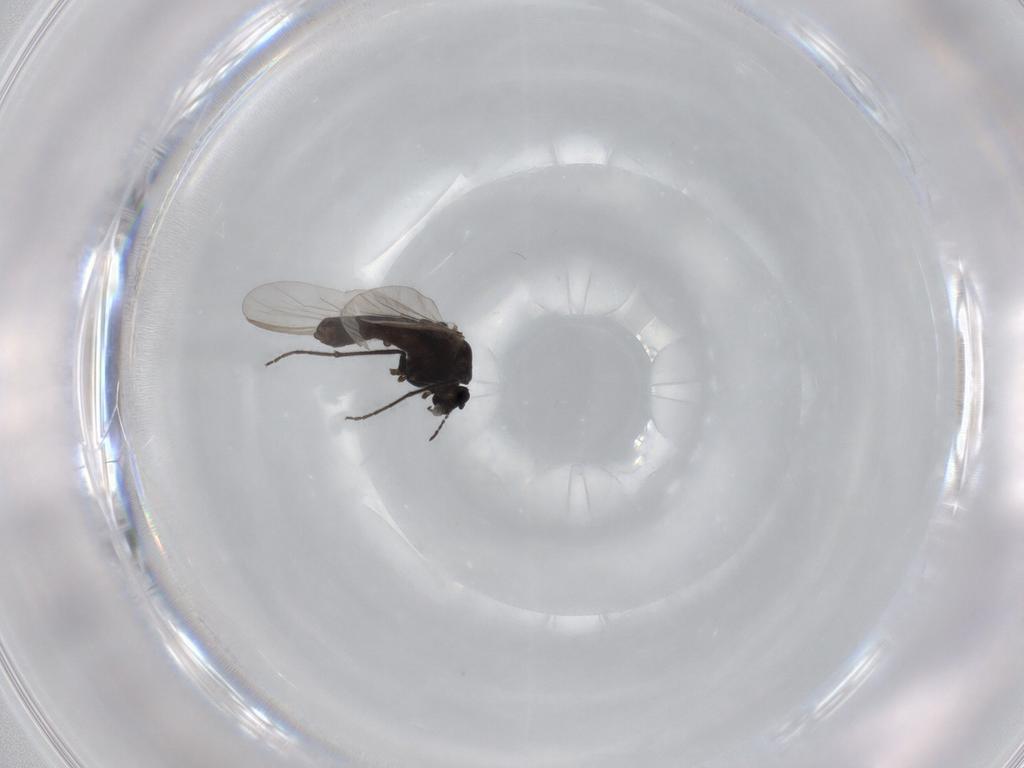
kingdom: Animalia
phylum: Arthropoda
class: Insecta
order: Diptera
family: Chironomidae
